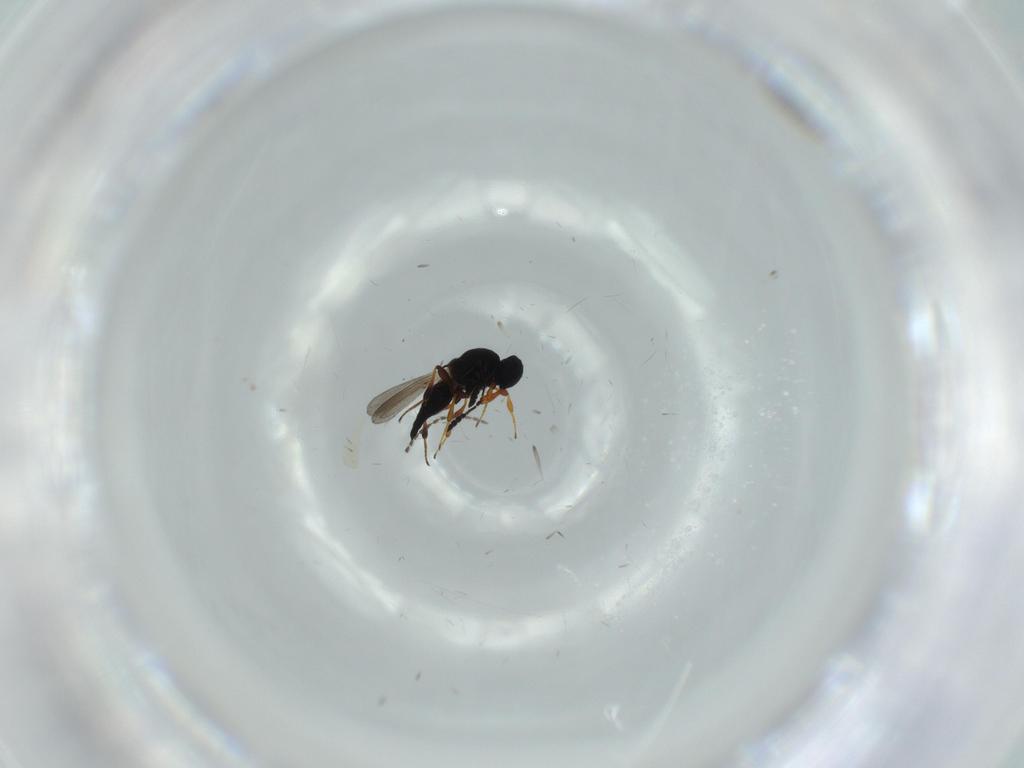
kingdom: Animalia
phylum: Arthropoda
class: Insecta
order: Hymenoptera
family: Platygastridae
